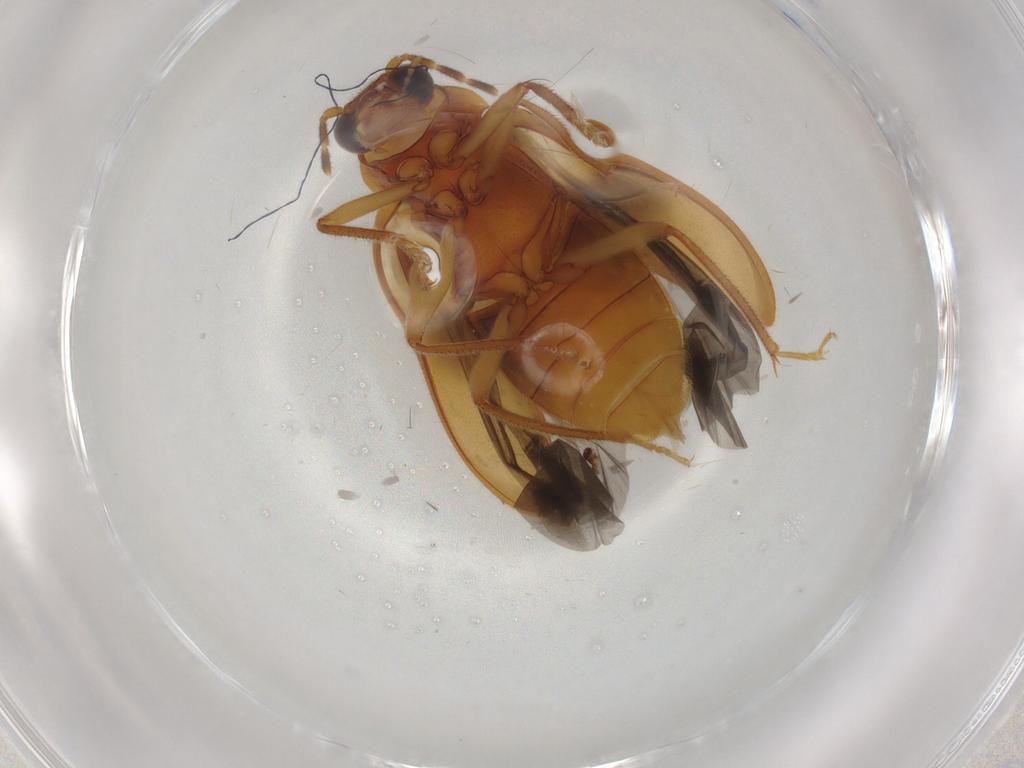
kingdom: Animalia
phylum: Arthropoda
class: Insecta
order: Coleoptera
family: Ptilodactylidae
